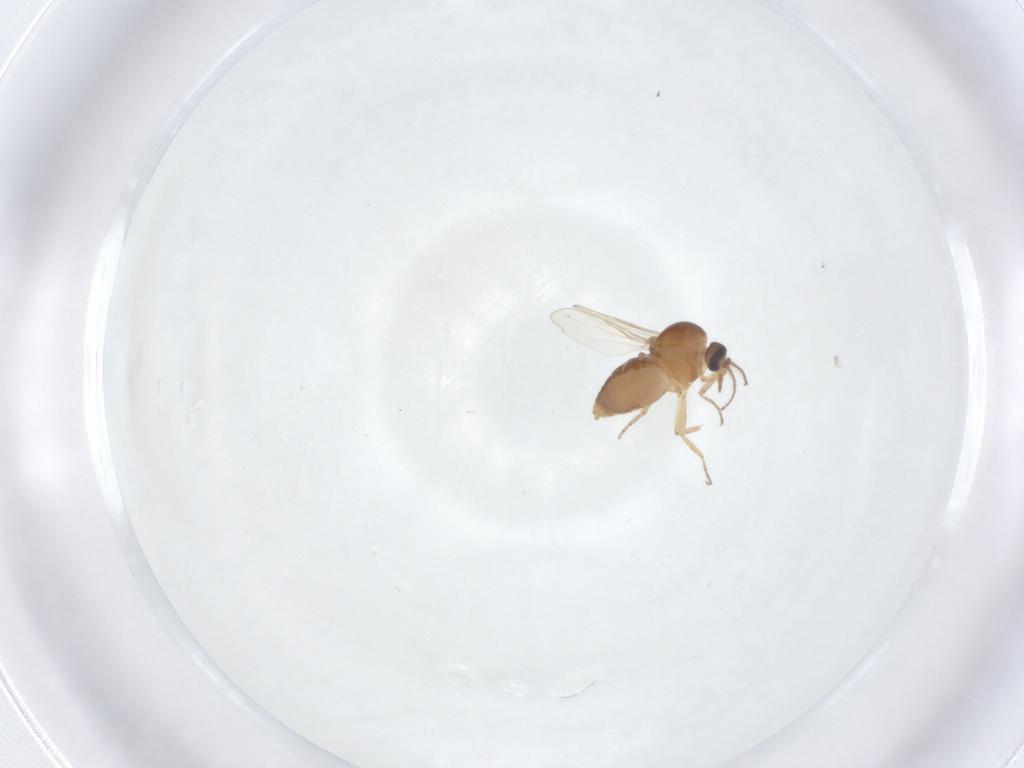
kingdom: Animalia
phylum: Arthropoda
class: Insecta
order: Diptera
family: Ceratopogonidae
